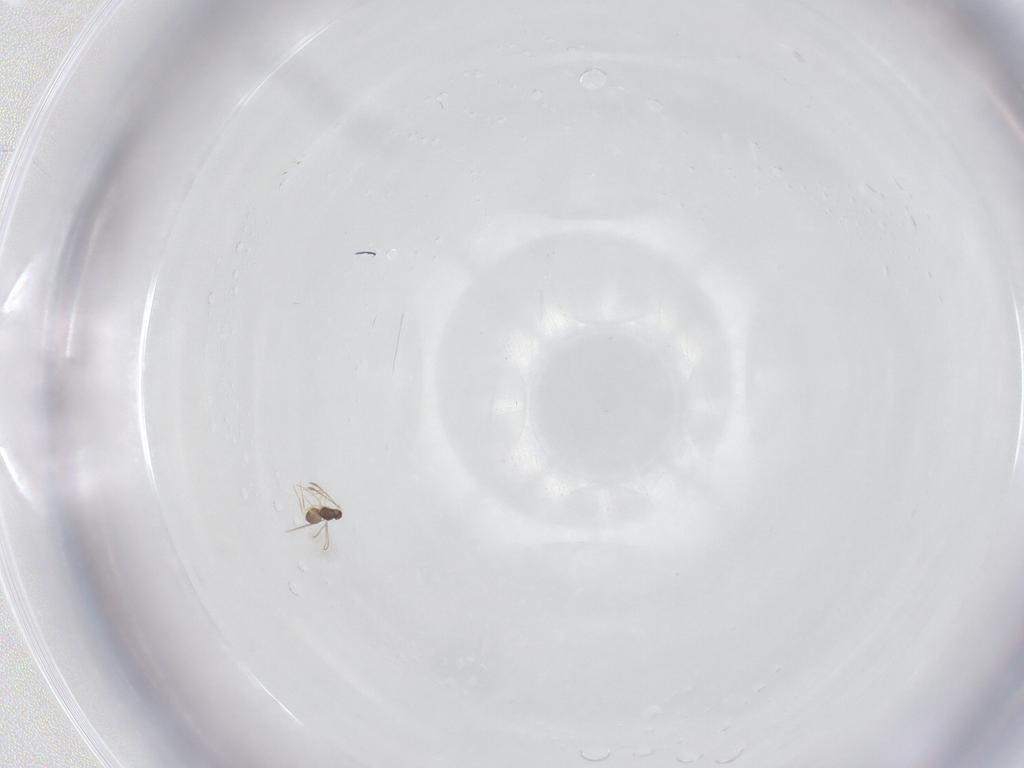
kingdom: Animalia
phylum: Arthropoda
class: Insecta
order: Hymenoptera
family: Mymaridae
